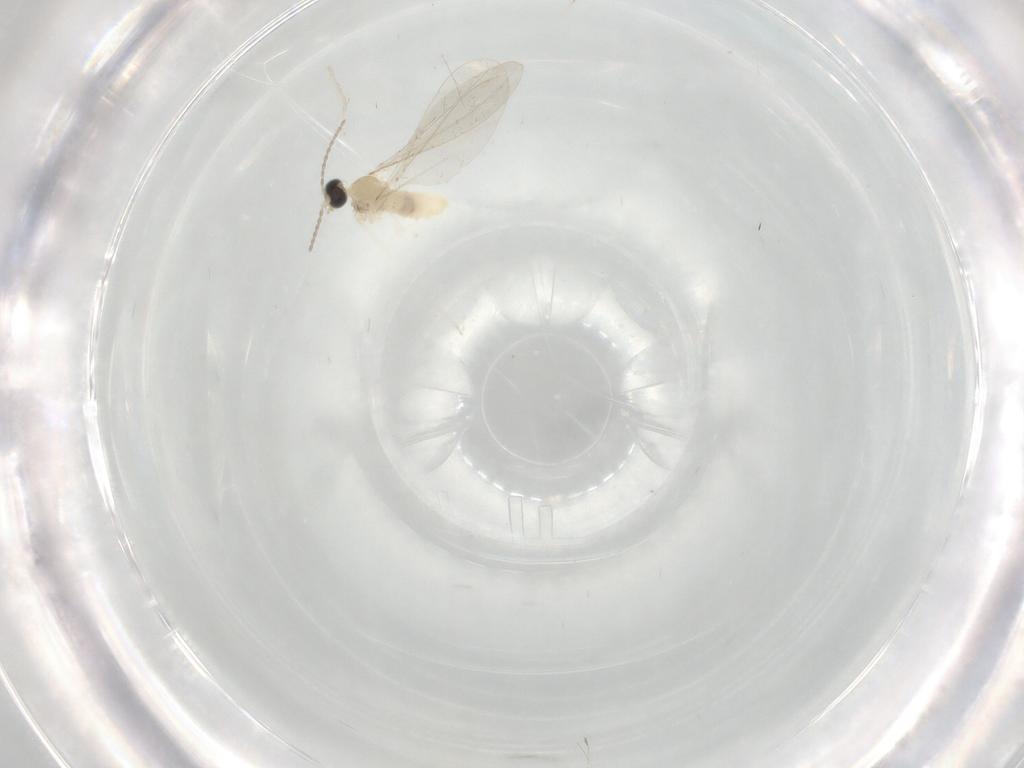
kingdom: Animalia
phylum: Arthropoda
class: Insecta
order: Diptera
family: Cecidomyiidae
